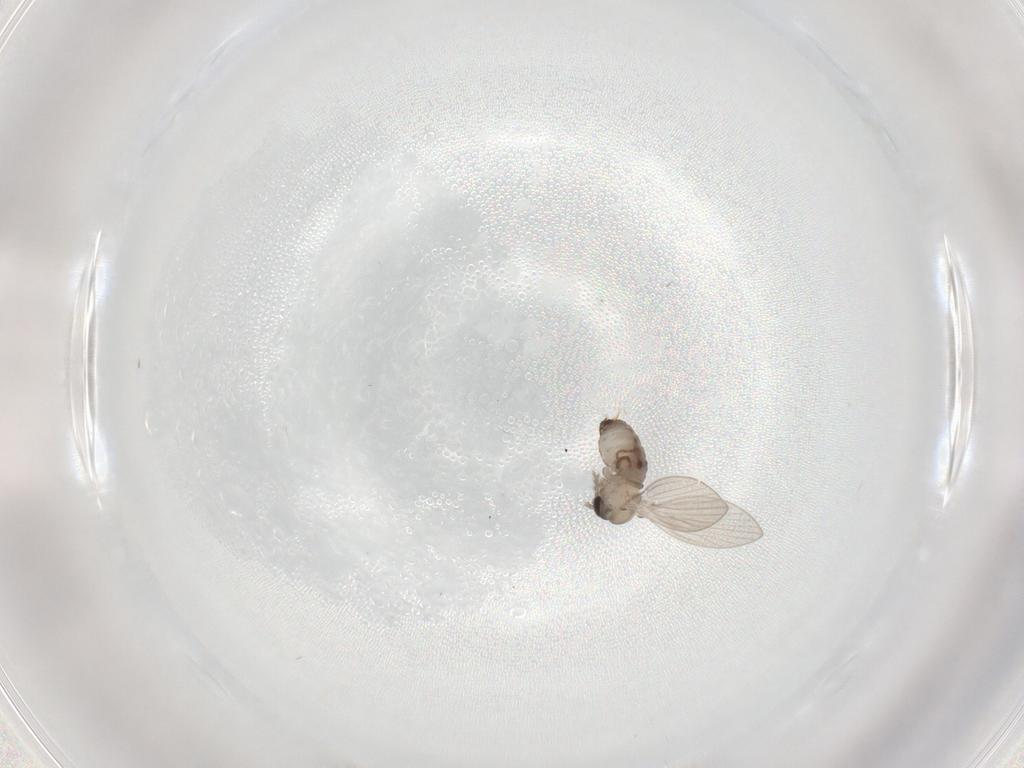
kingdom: Animalia
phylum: Arthropoda
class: Insecta
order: Diptera
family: Psychodidae
